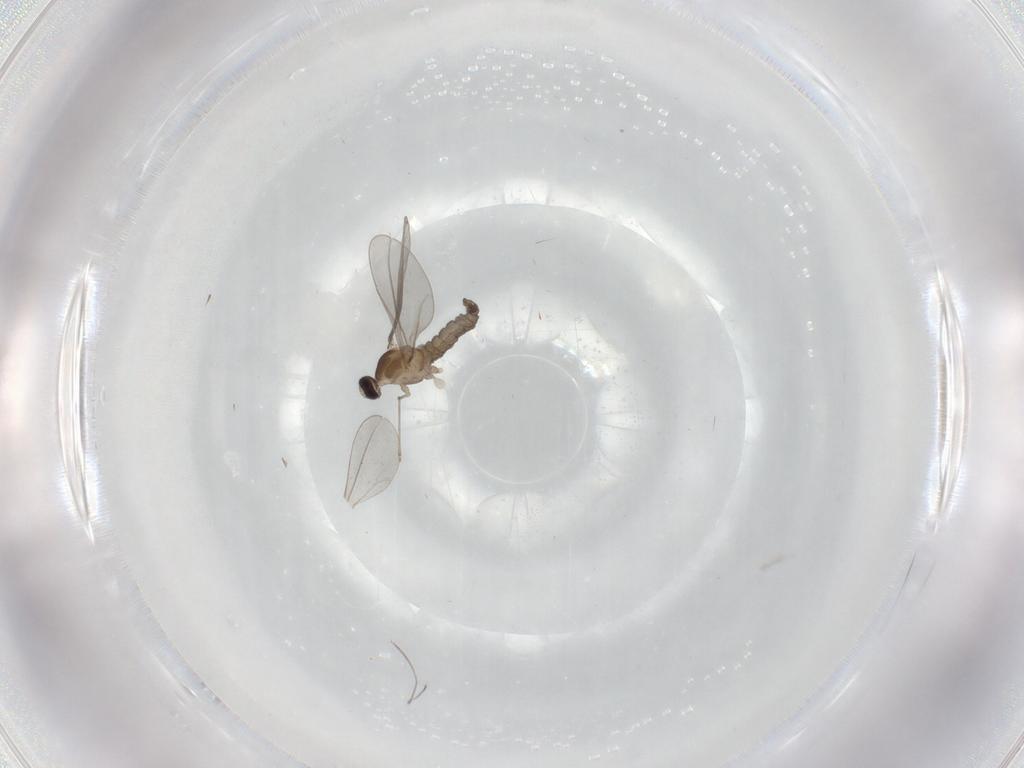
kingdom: Animalia
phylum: Arthropoda
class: Insecta
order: Diptera
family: Cecidomyiidae
